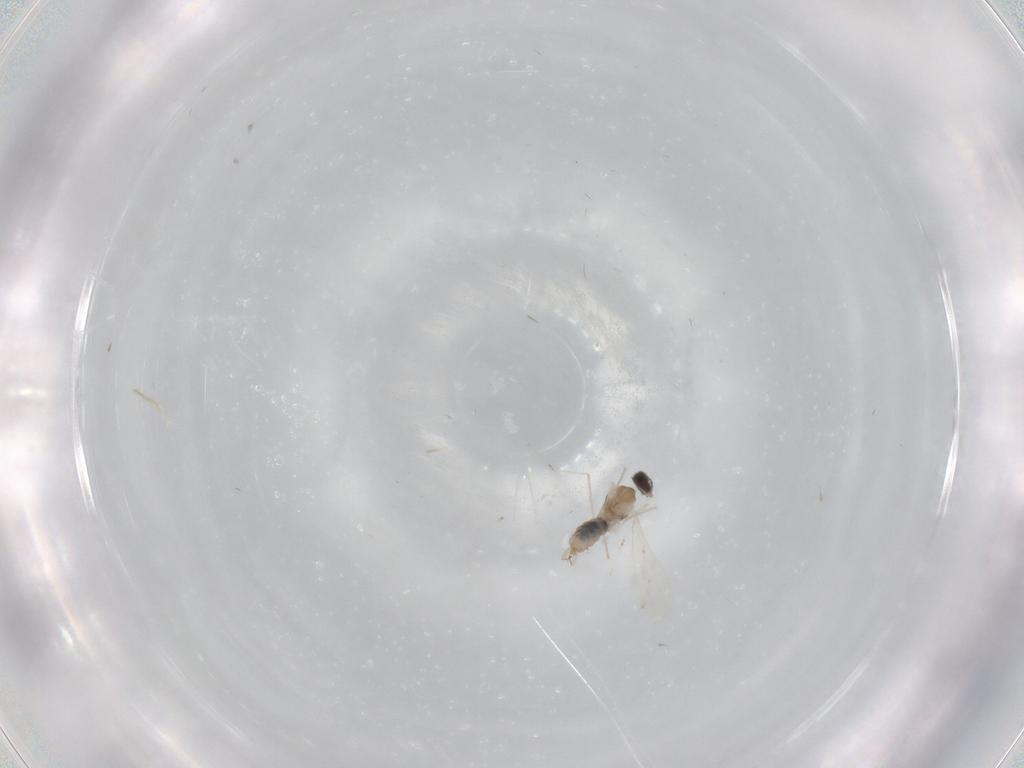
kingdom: Animalia
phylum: Arthropoda
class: Insecta
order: Diptera
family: Cecidomyiidae
